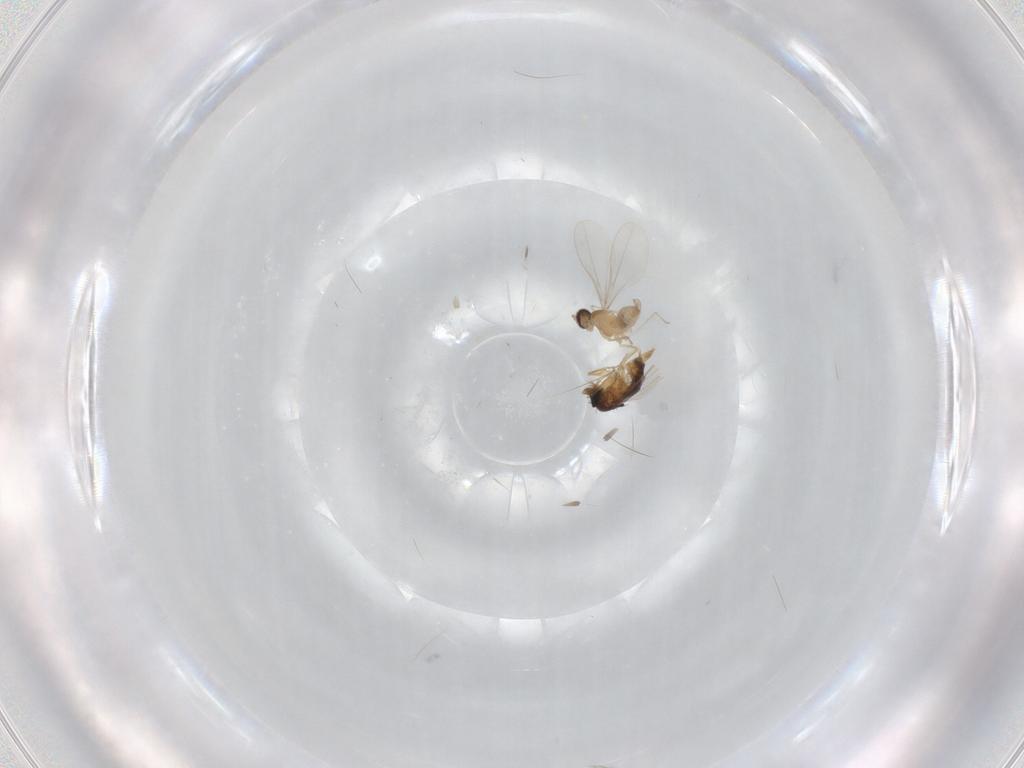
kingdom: Animalia
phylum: Arthropoda
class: Insecta
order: Diptera
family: Cecidomyiidae
